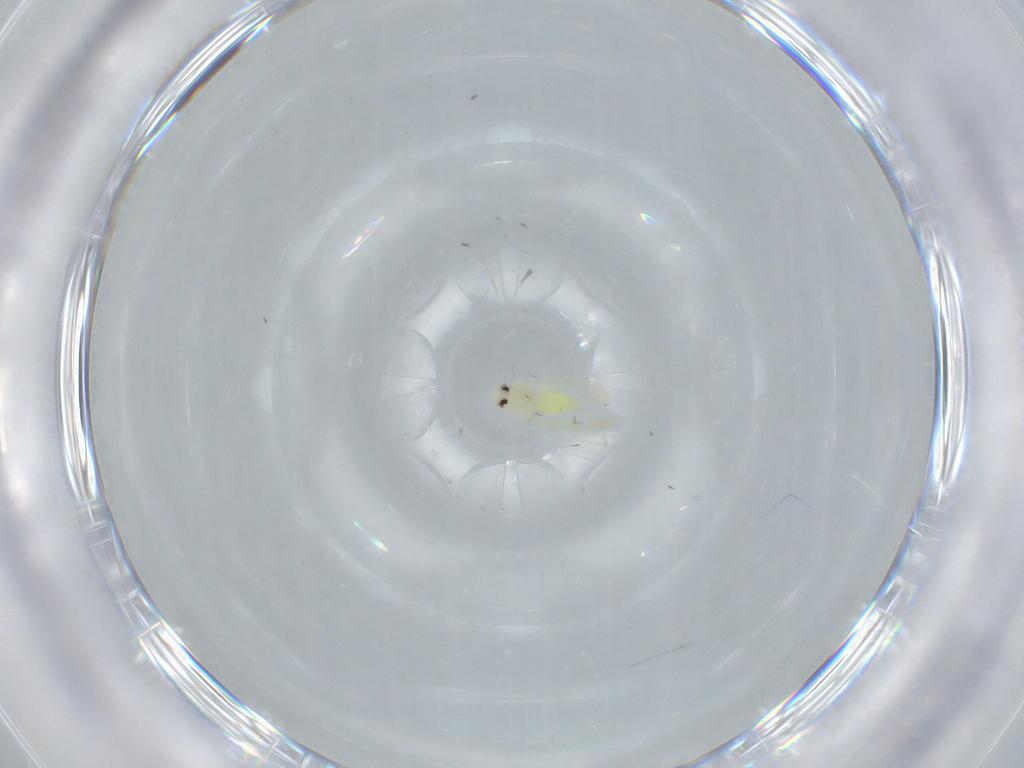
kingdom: Animalia
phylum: Arthropoda
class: Insecta
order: Hemiptera
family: Aleyrodidae
